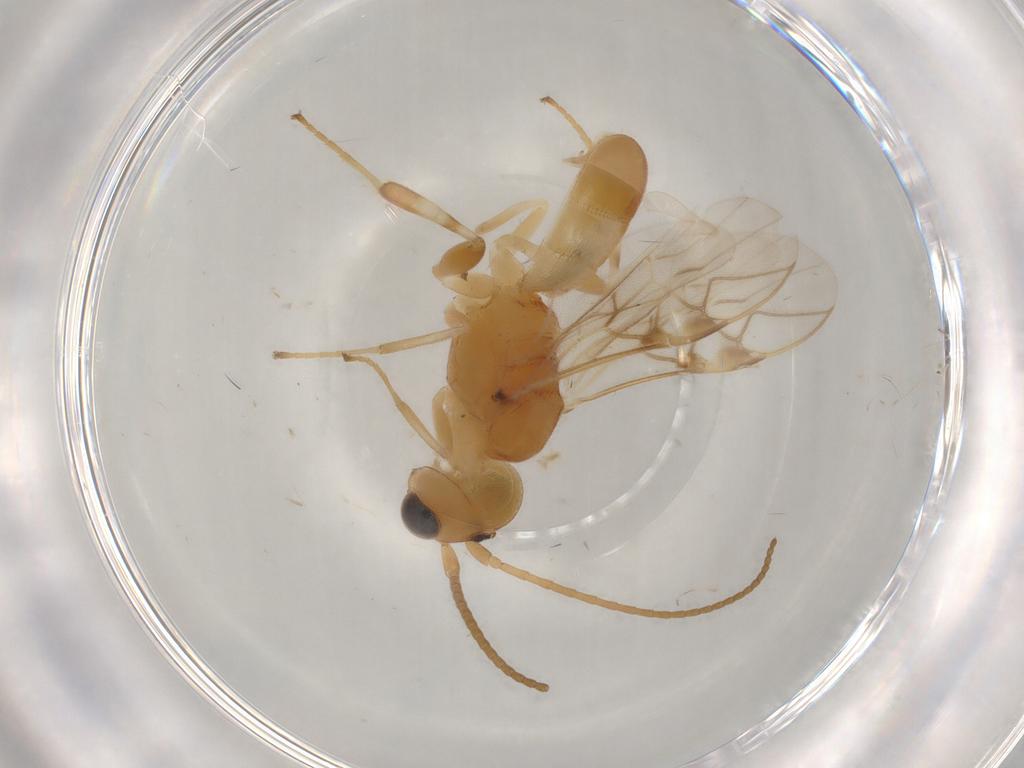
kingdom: Animalia
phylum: Arthropoda
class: Insecta
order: Hymenoptera
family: Braconidae
